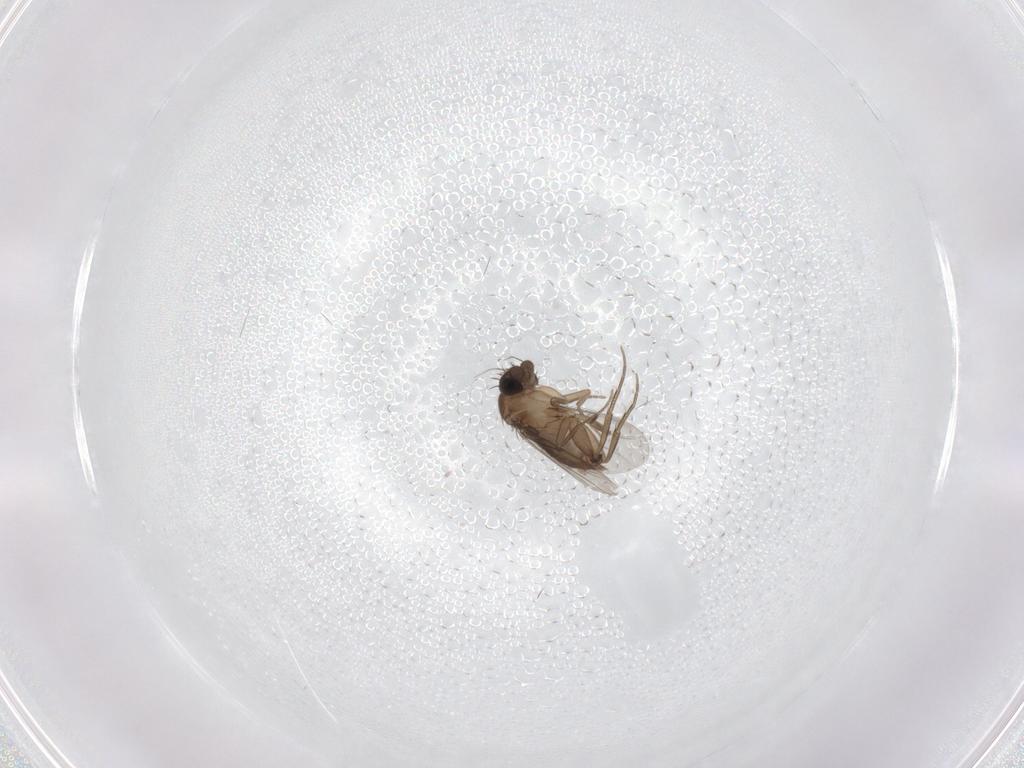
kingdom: Animalia
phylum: Arthropoda
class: Insecta
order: Diptera
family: Phoridae
